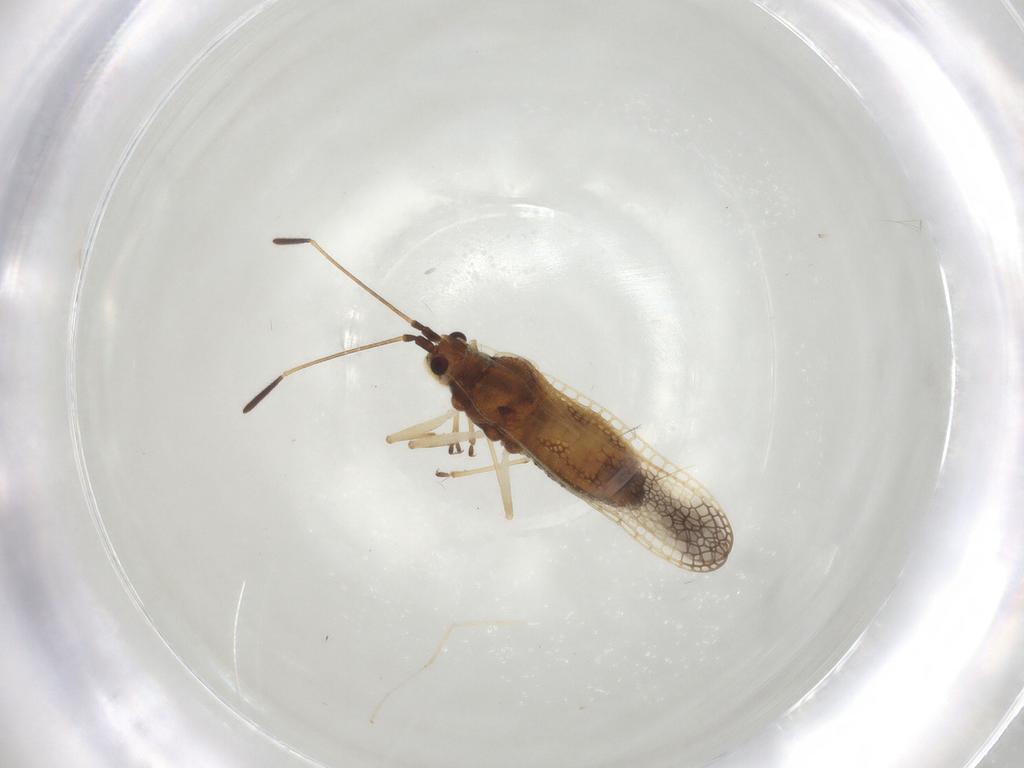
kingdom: Animalia
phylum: Arthropoda
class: Insecta
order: Hemiptera
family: Tingidae
